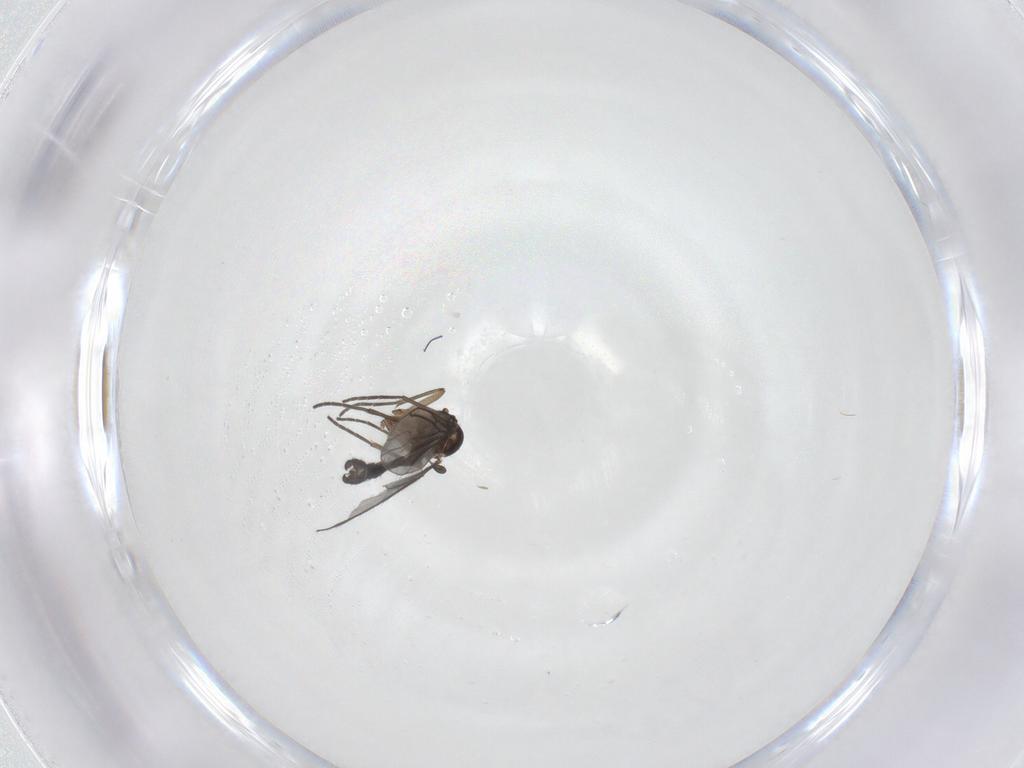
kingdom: Animalia
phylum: Arthropoda
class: Insecta
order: Diptera
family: Sciaridae
